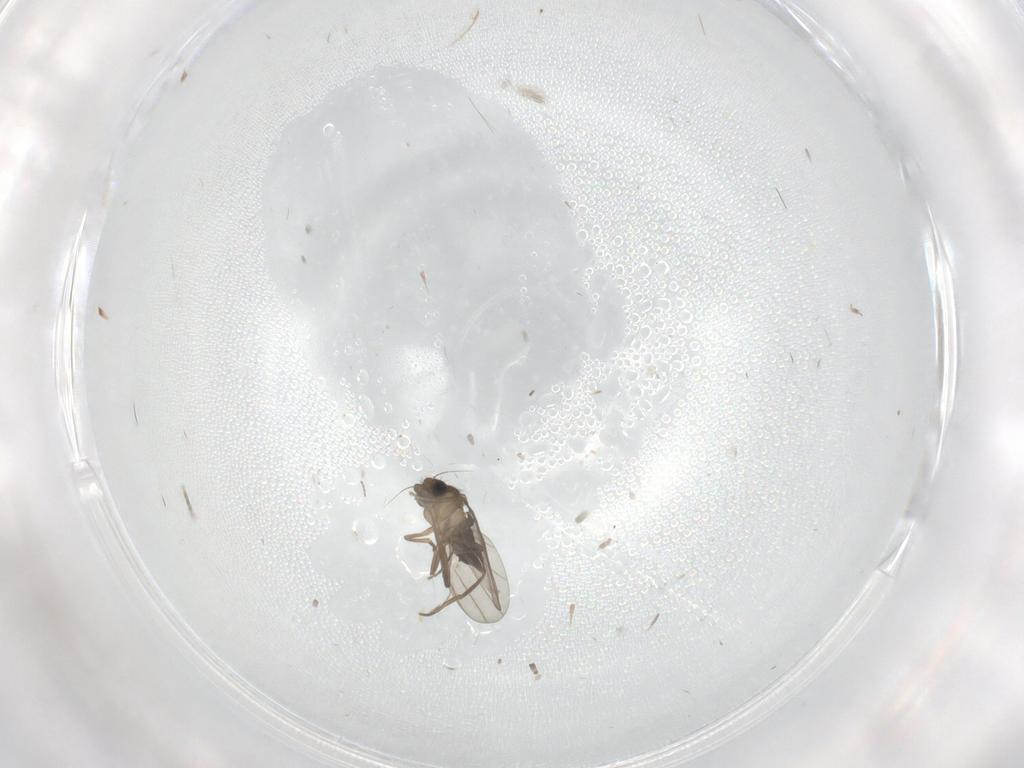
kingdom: Animalia
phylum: Arthropoda
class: Insecta
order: Diptera
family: Phoridae
